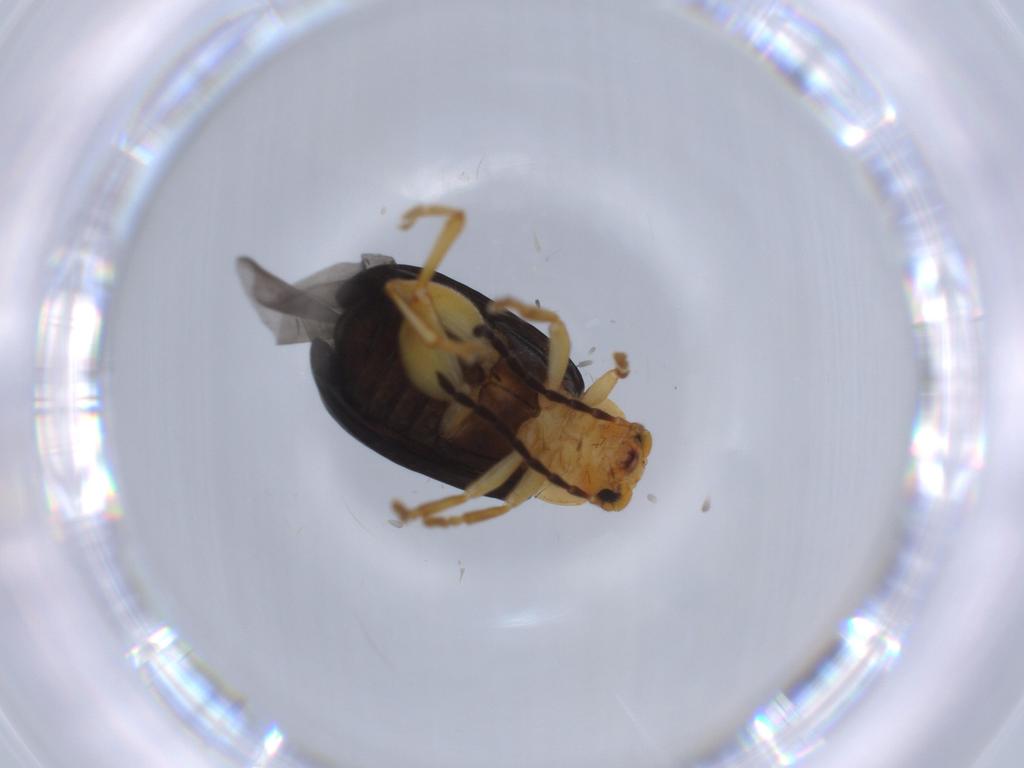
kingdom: Animalia
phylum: Arthropoda
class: Insecta
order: Coleoptera
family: Chrysomelidae
